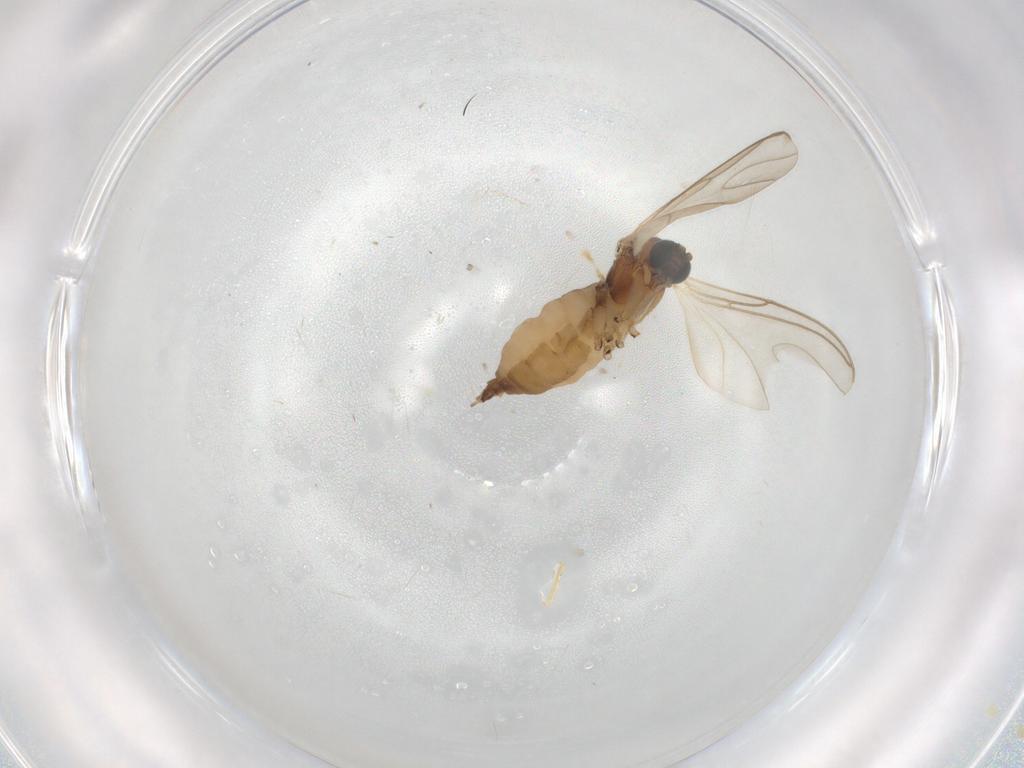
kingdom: Animalia
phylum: Arthropoda
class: Insecta
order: Diptera
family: Sciaridae
